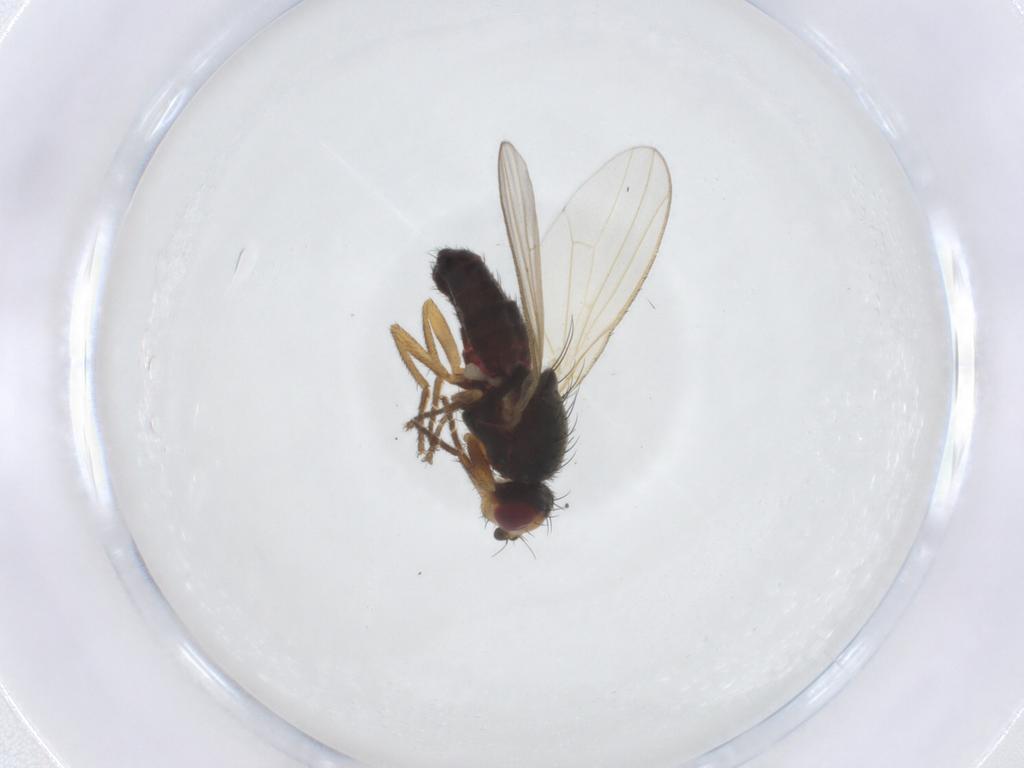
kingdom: Animalia
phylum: Arthropoda
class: Insecta
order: Diptera
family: Heleomyzidae
